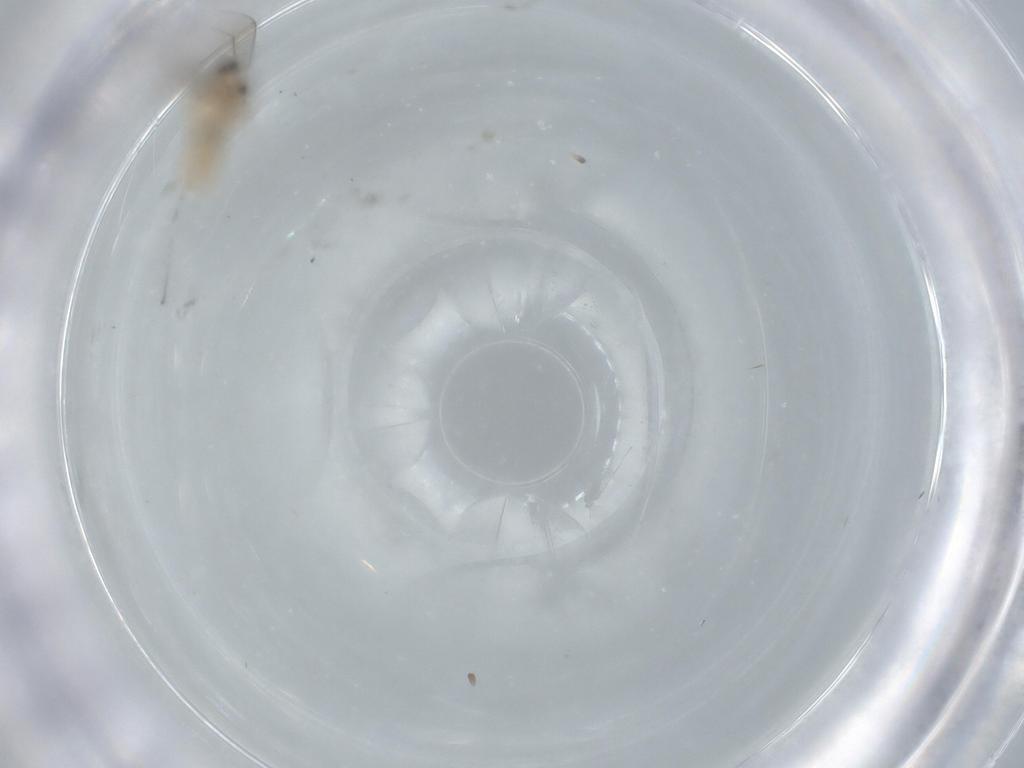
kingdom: Animalia
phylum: Arthropoda
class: Insecta
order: Diptera
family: Cecidomyiidae
